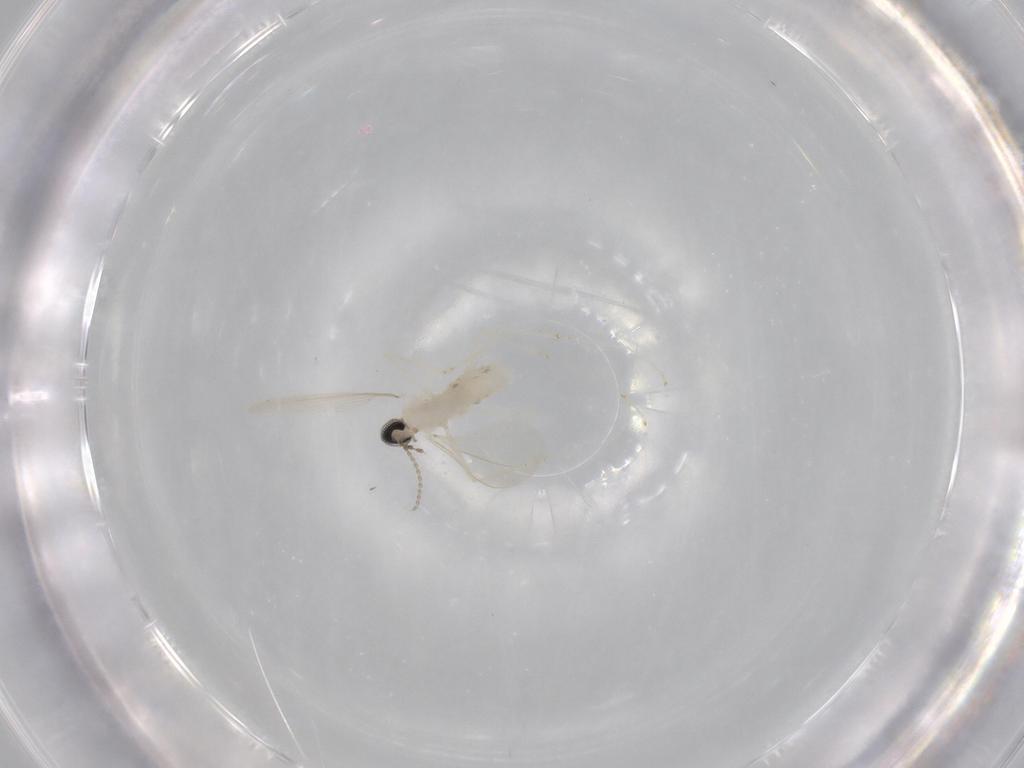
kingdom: Animalia
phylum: Arthropoda
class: Insecta
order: Diptera
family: Cecidomyiidae
